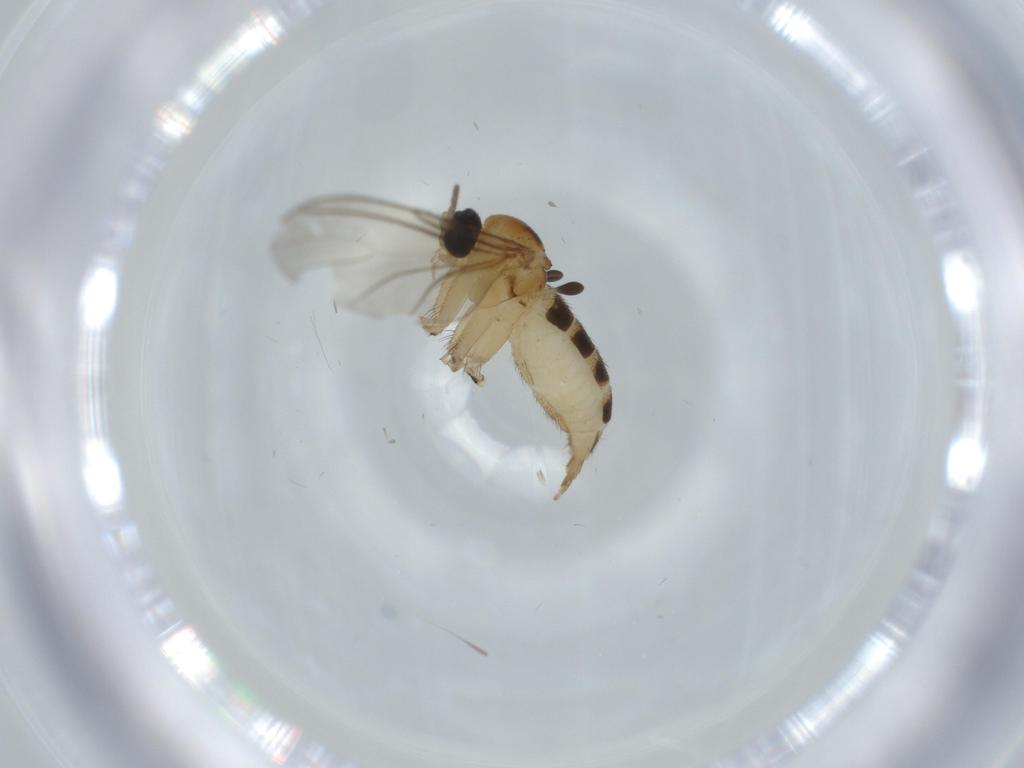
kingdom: Animalia
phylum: Arthropoda
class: Insecta
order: Diptera
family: Sciaridae
